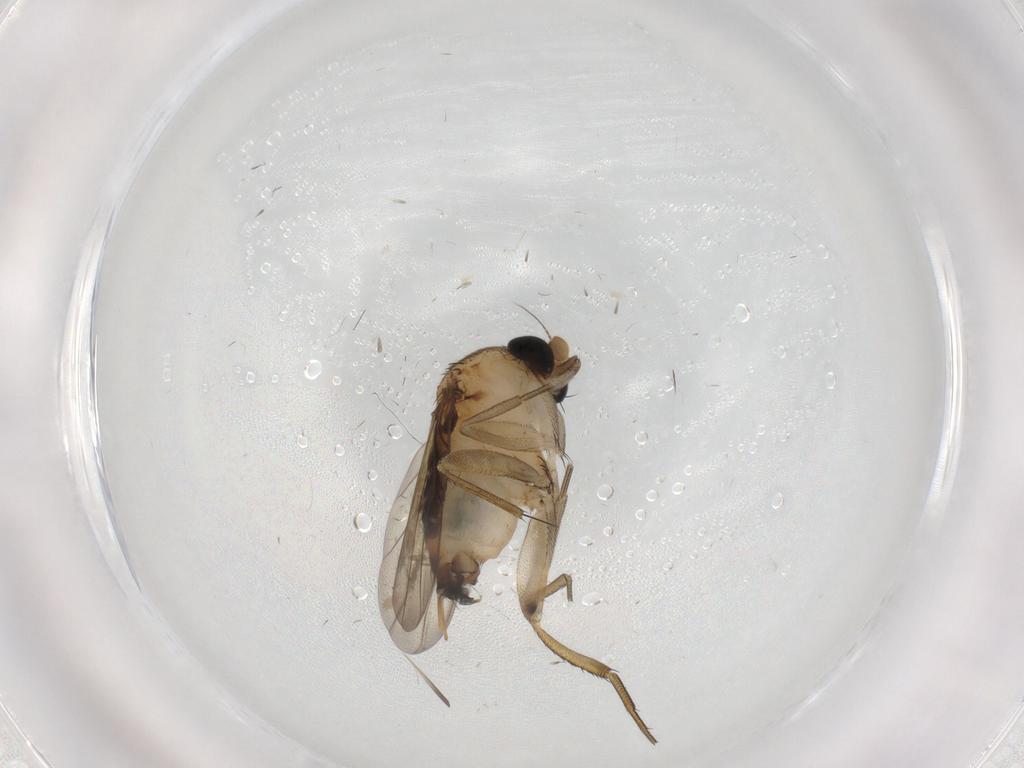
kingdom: Animalia
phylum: Arthropoda
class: Insecta
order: Diptera
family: Phoridae
